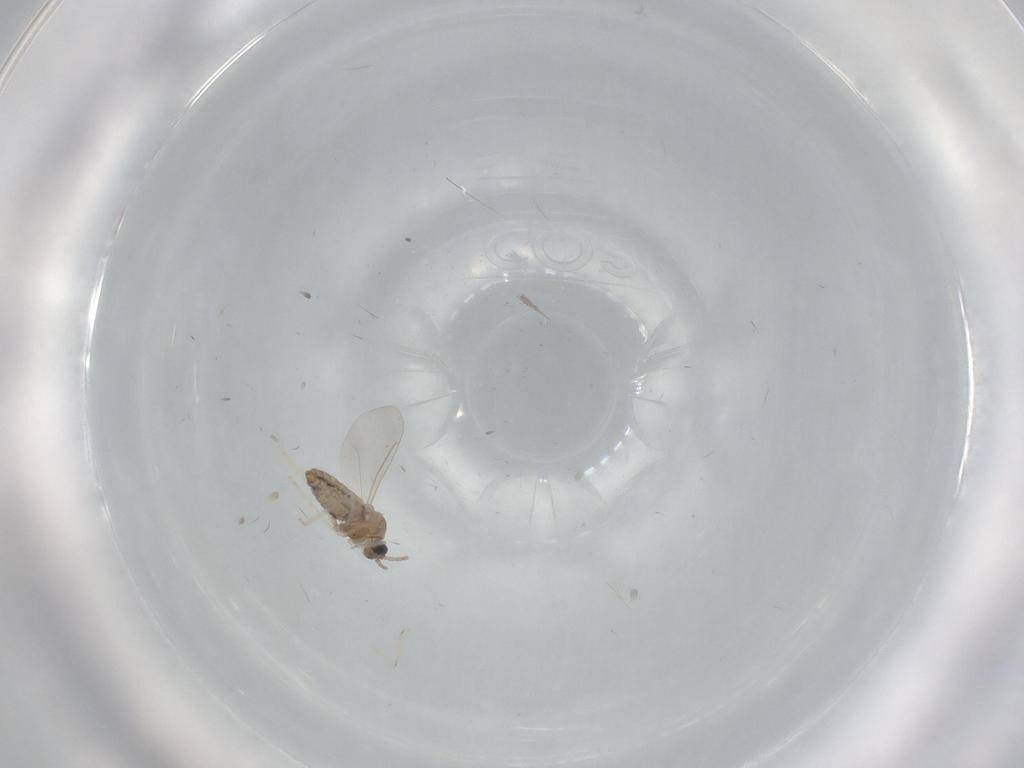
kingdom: Animalia
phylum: Arthropoda
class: Insecta
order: Diptera
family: Cecidomyiidae
